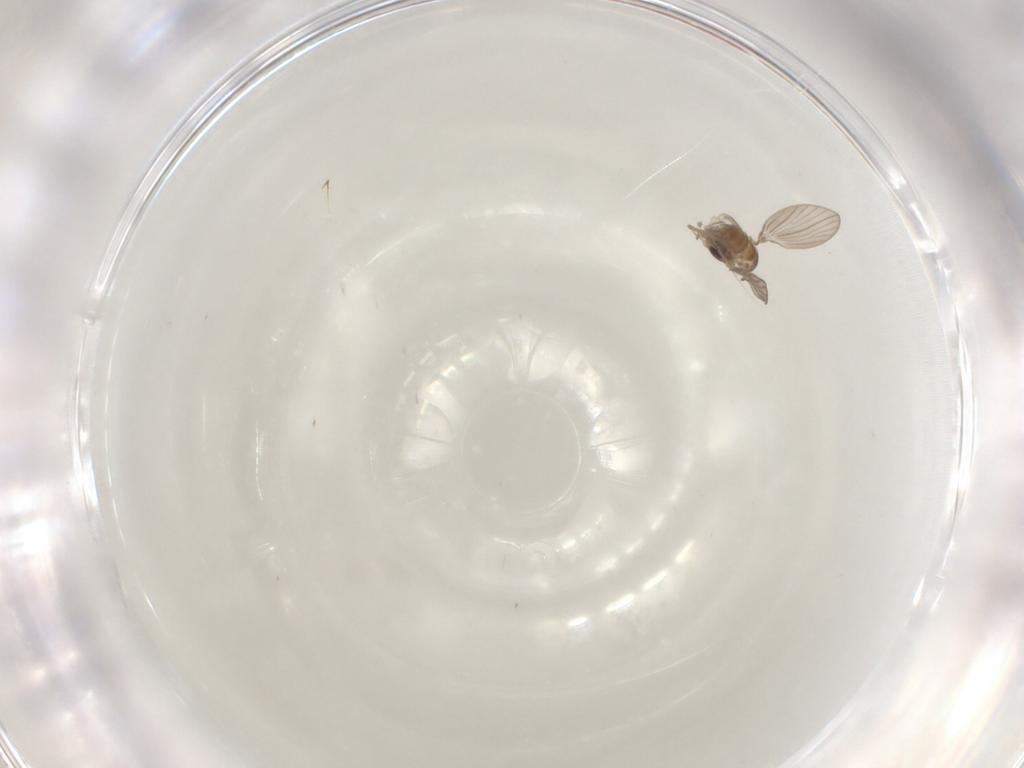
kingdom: Animalia
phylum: Arthropoda
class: Insecta
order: Diptera
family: Psychodidae
